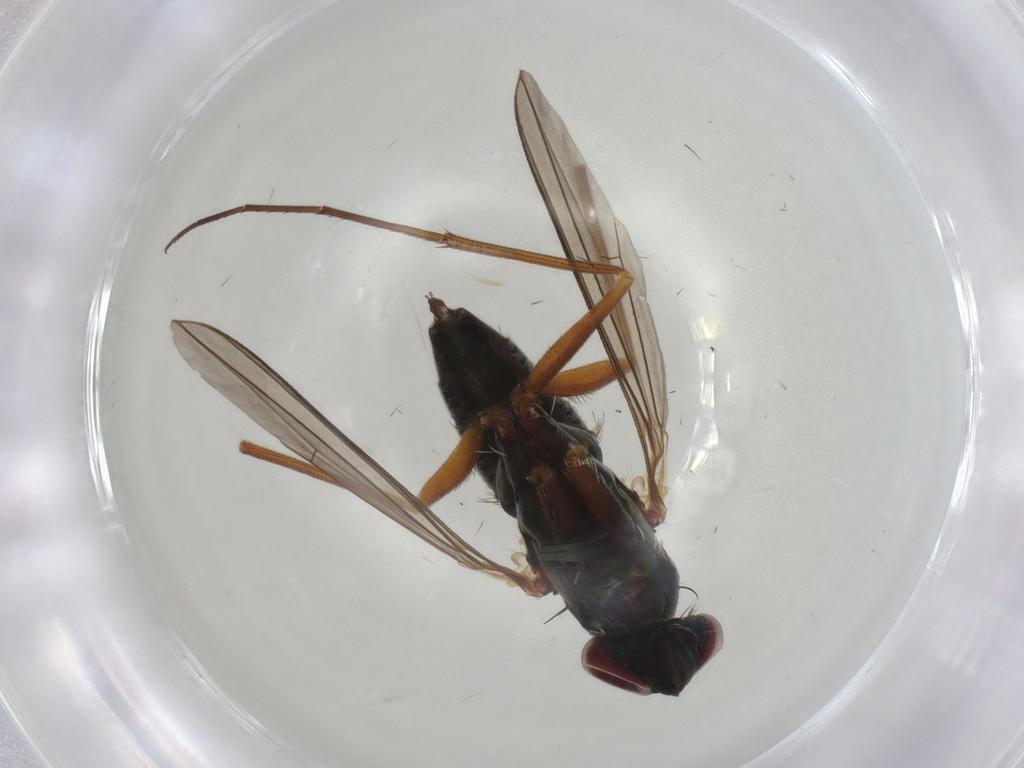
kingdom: Animalia
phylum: Arthropoda
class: Insecta
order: Diptera
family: Dolichopodidae
